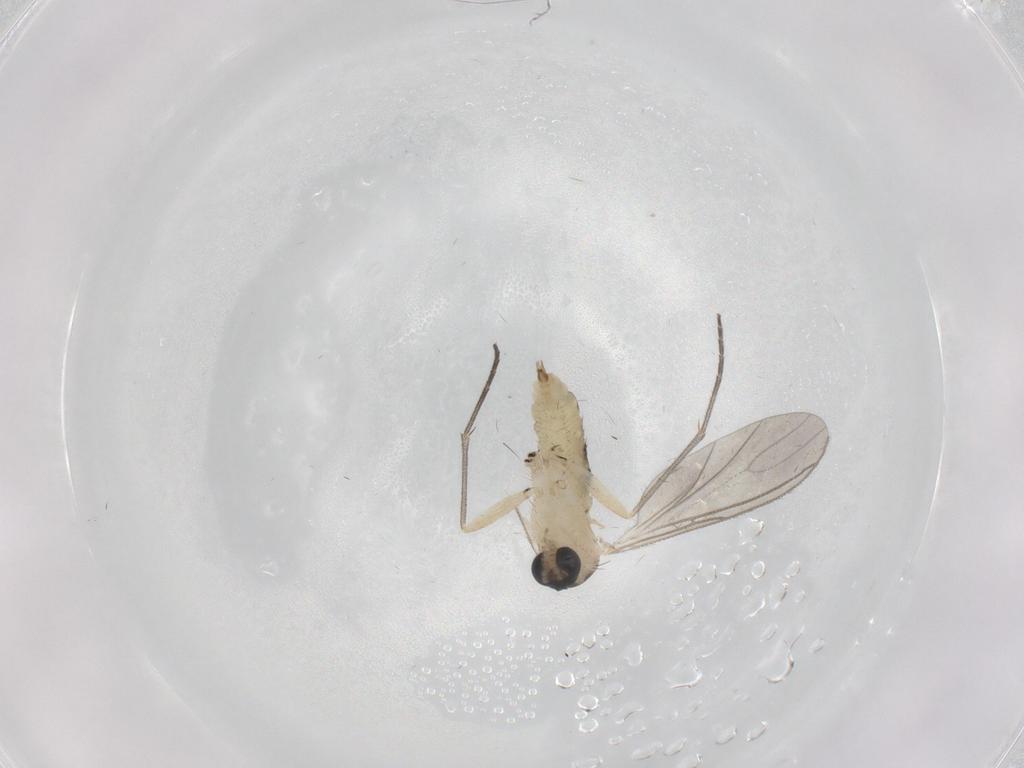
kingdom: Animalia
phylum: Arthropoda
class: Insecta
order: Diptera
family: Sciaridae
